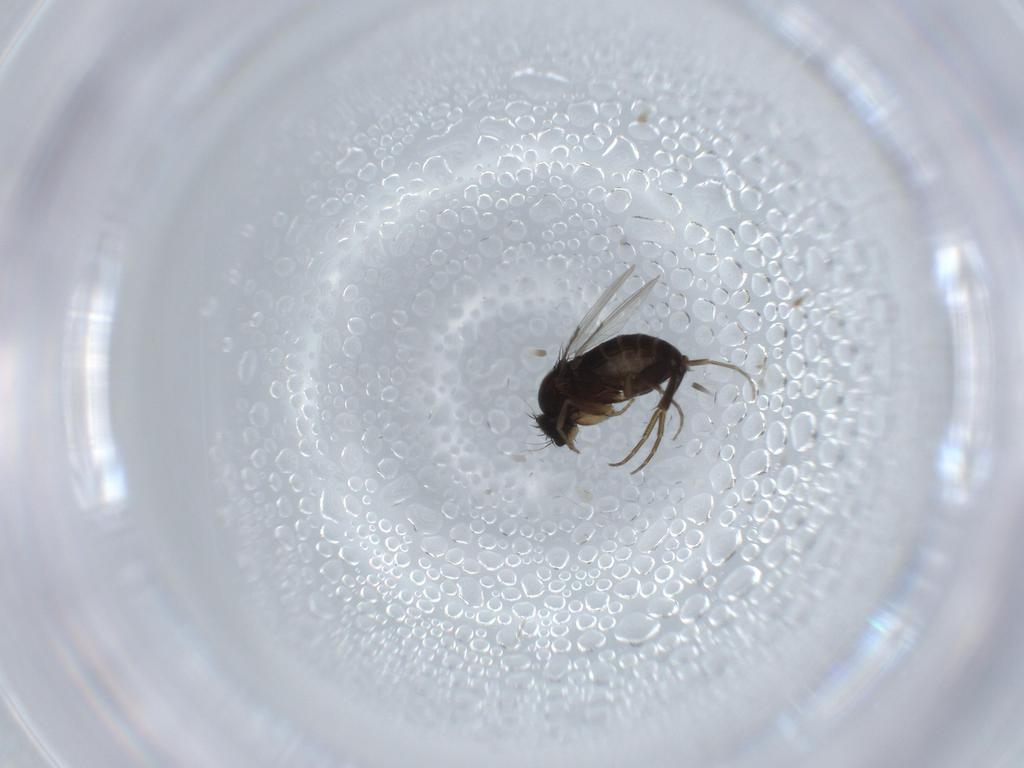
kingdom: Animalia
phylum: Arthropoda
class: Insecta
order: Diptera
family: Phoridae
